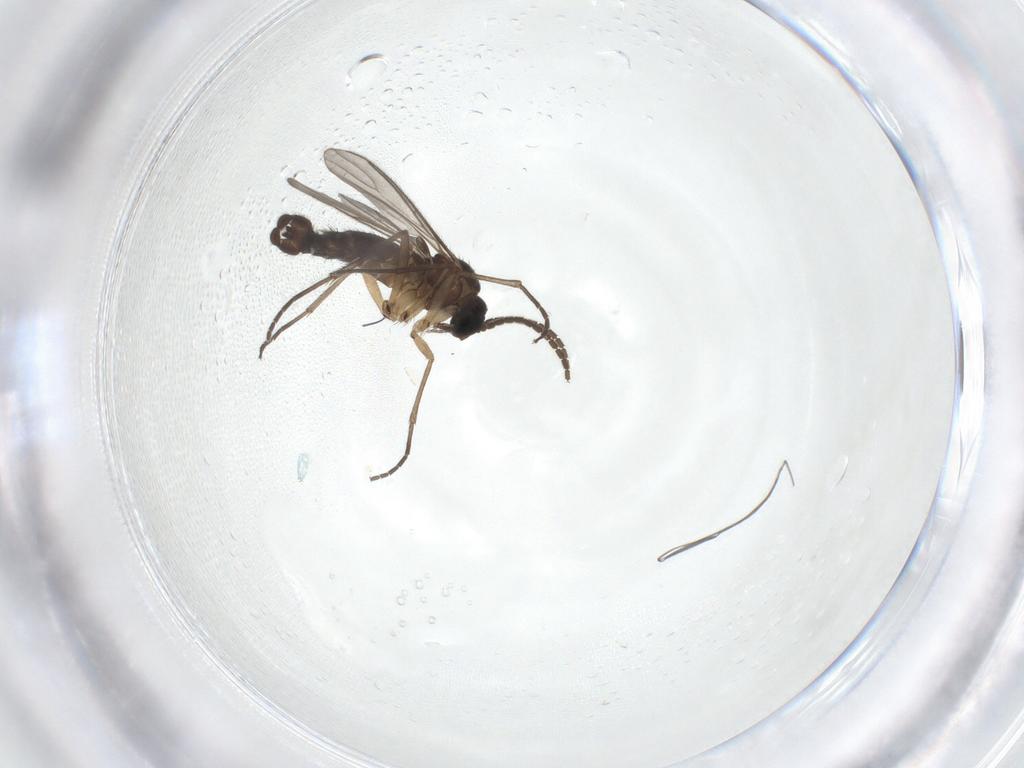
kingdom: Animalia
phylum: Arthropoda
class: Insecta
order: Diptera
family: Sciaridae
